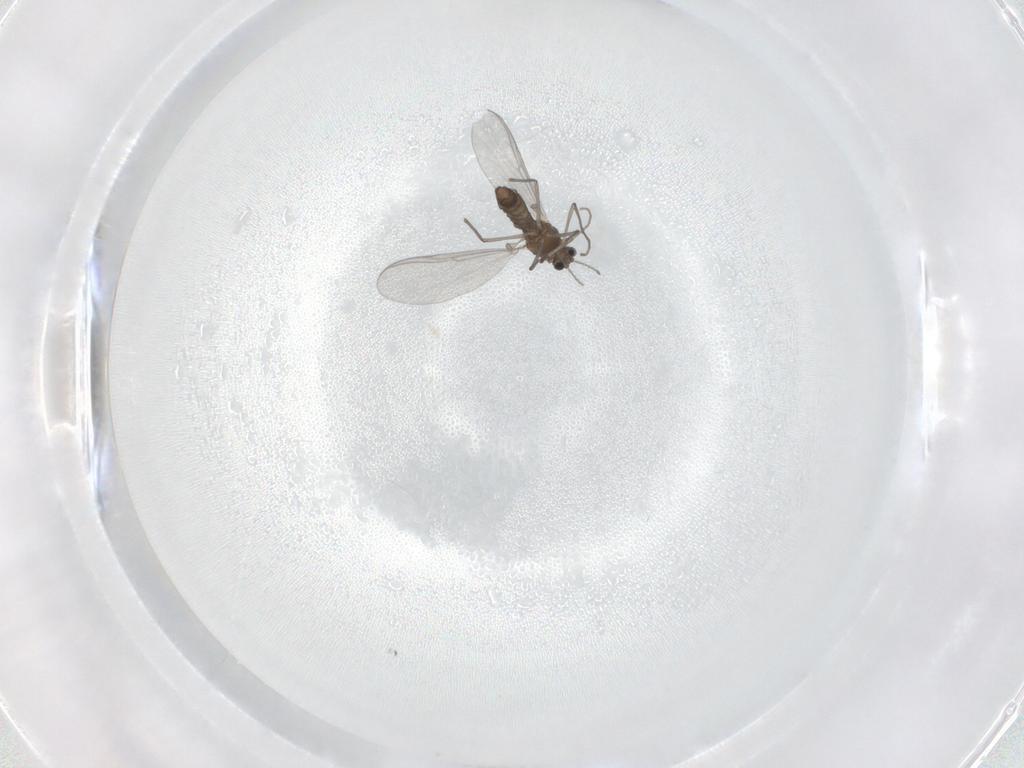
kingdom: Animalia
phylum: Arthropoda
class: Insecta
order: Diptera
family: Chironomidae
